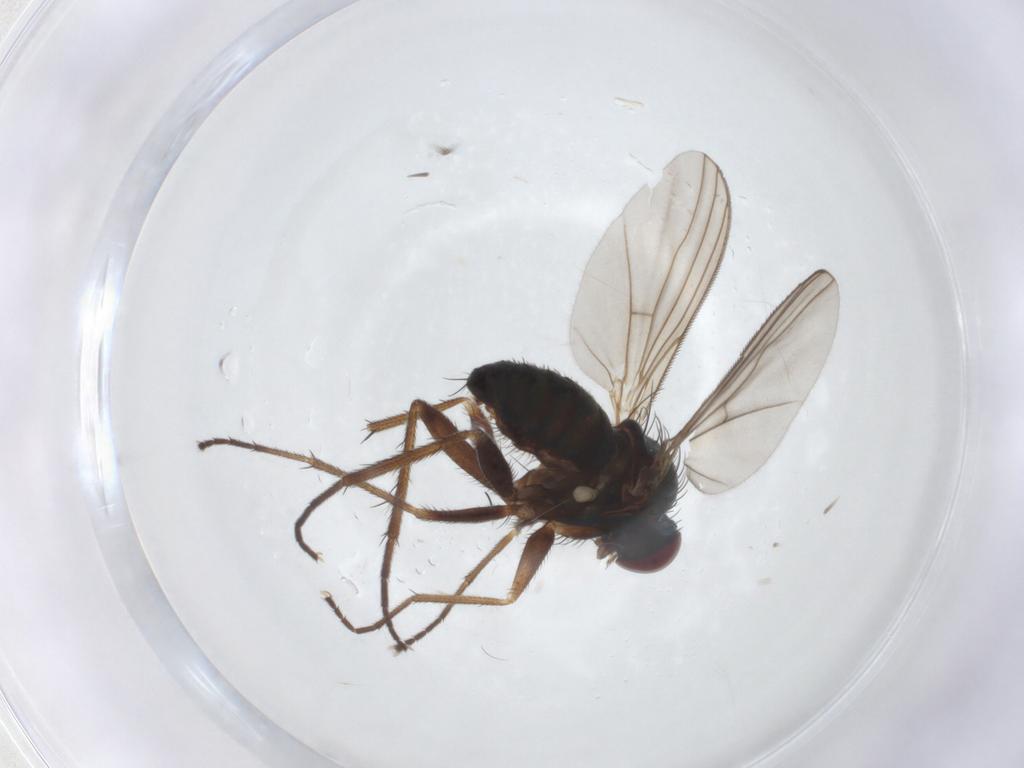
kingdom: Animalia
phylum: Arthropoda
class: Insecta
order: Diptera
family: Dolichopodidae
